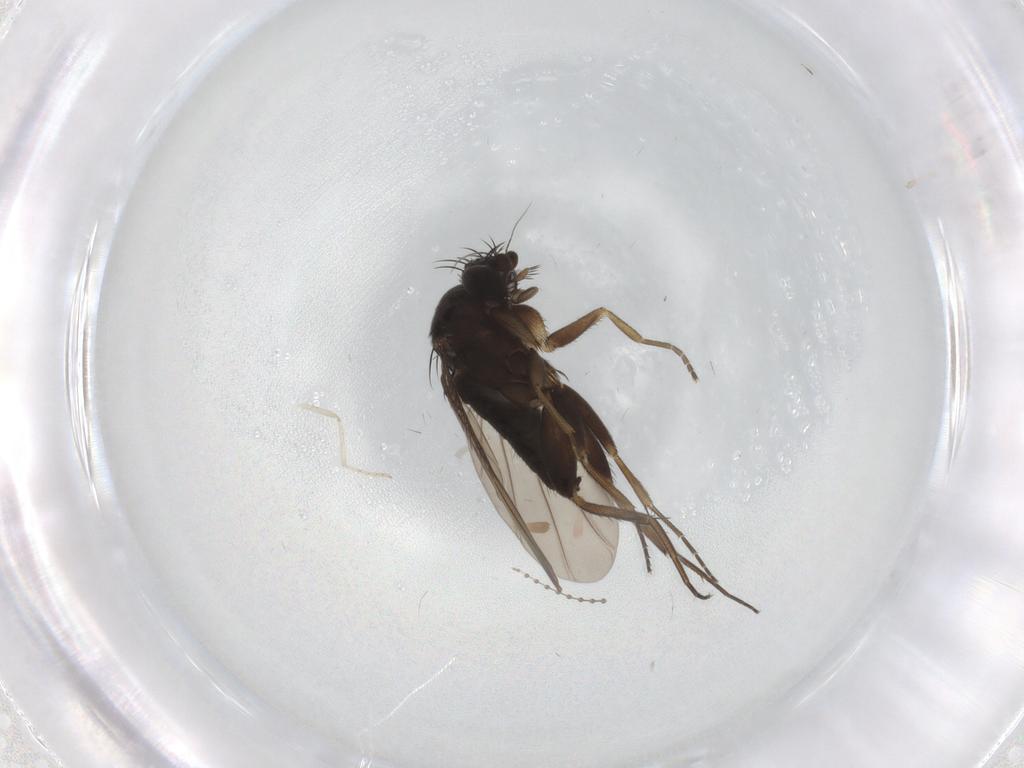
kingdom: Animalia
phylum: Arthropoda
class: Insecta
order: Diptera
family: Phoridae
